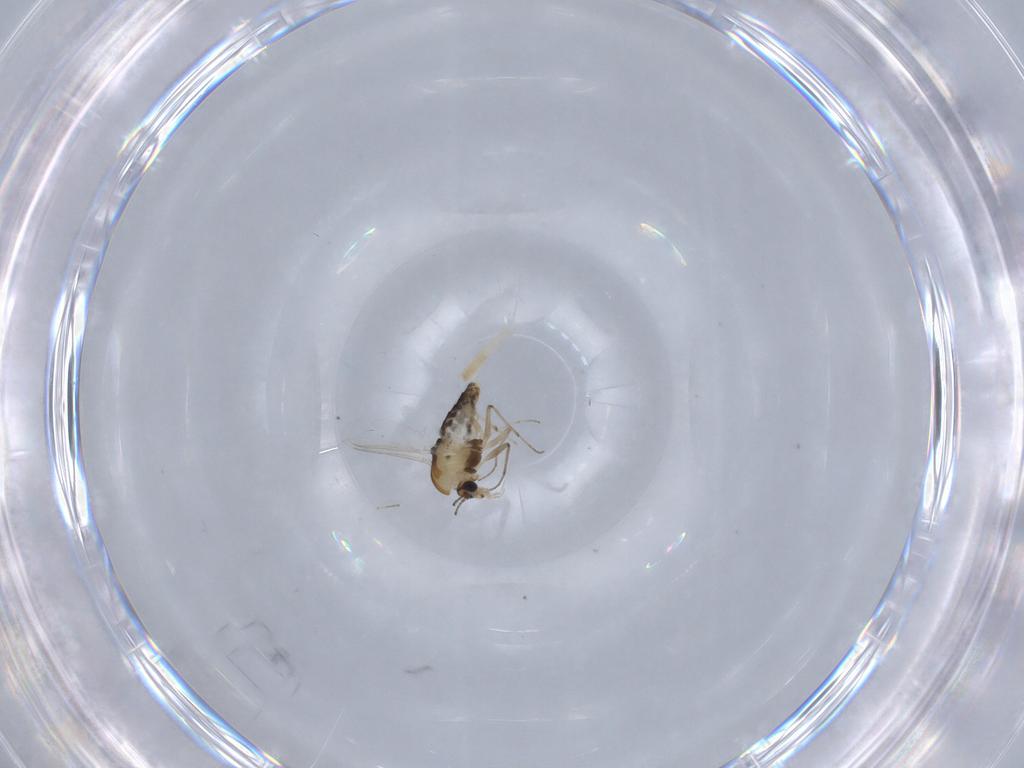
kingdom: Animalia
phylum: Arthropoda
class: Insecta
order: Diptera
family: Chironomidae
